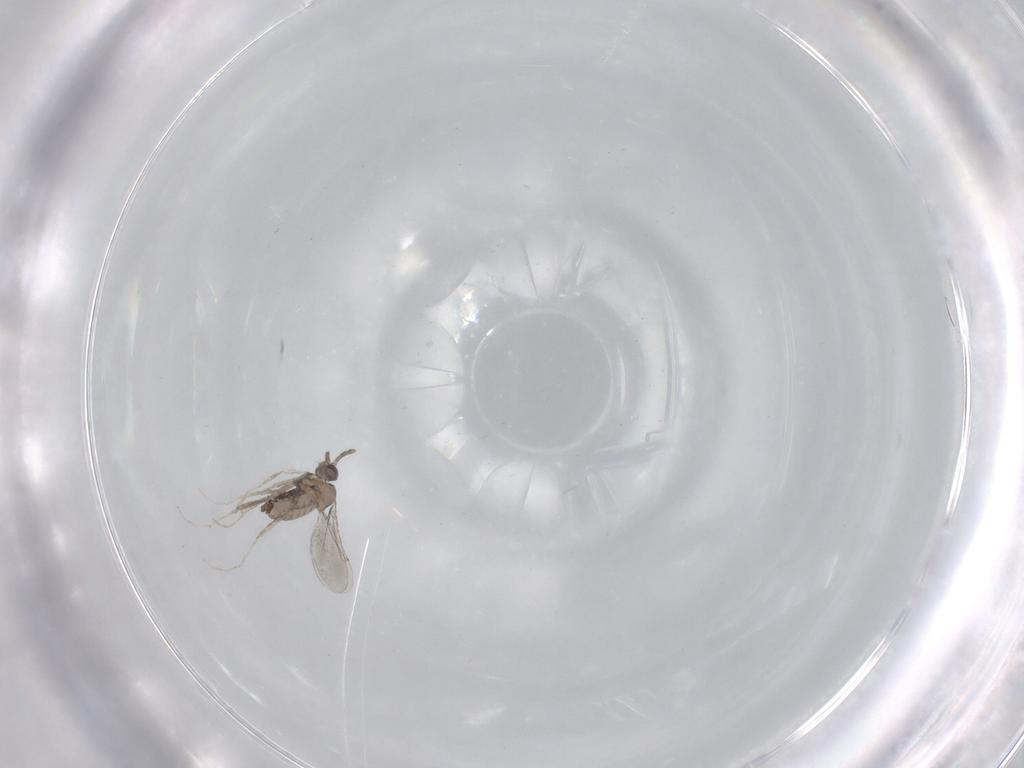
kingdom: Animalia
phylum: Arthropoda
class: Insecta
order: Diptera
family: Cecidomyiidae
